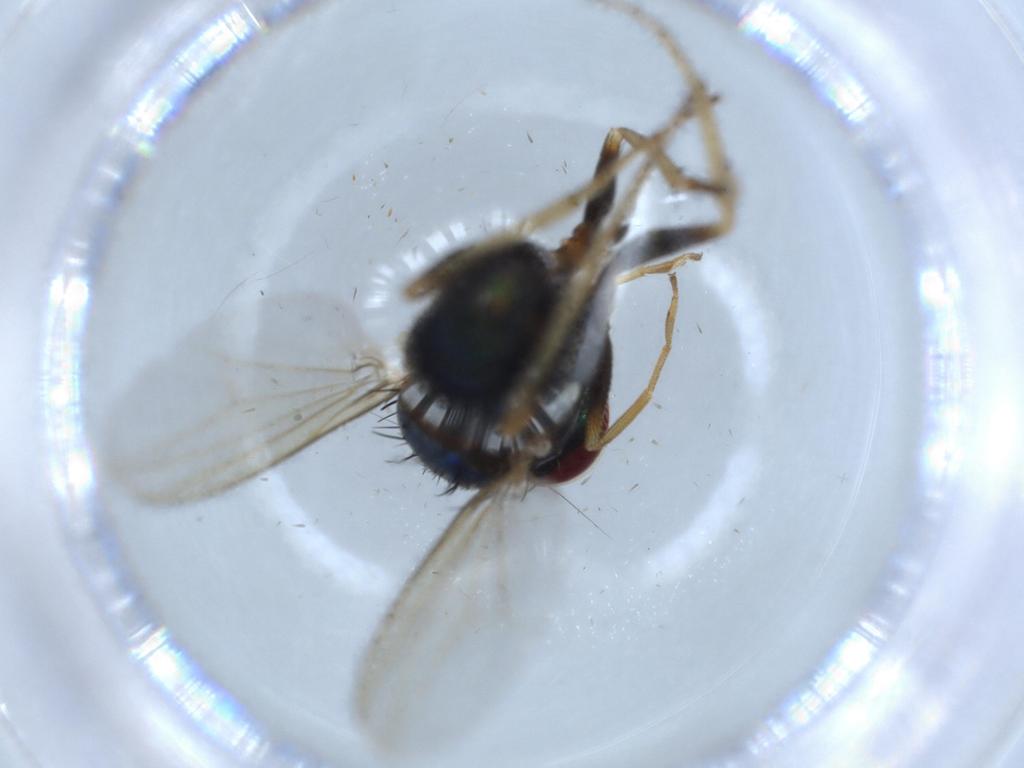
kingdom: Animalia
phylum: Arthropoda
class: Insecta
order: Diptera
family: Dolichopodidae
